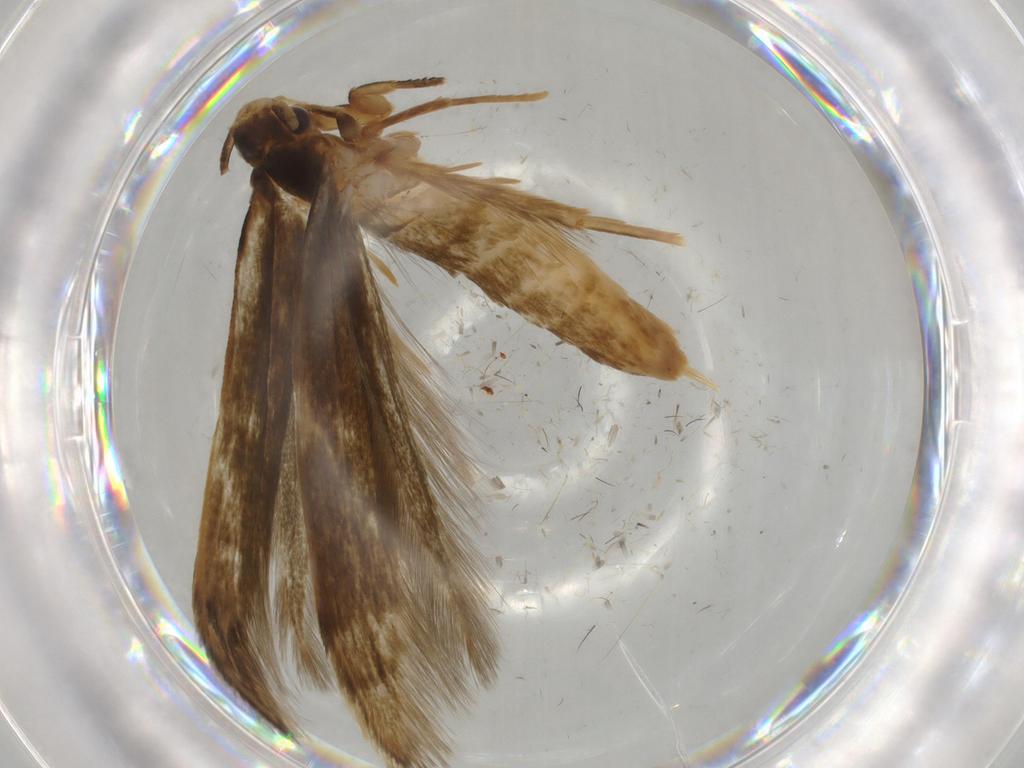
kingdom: Animalia
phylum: Arthropoda
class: Insecta
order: Lepidoptera
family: Tineidae
